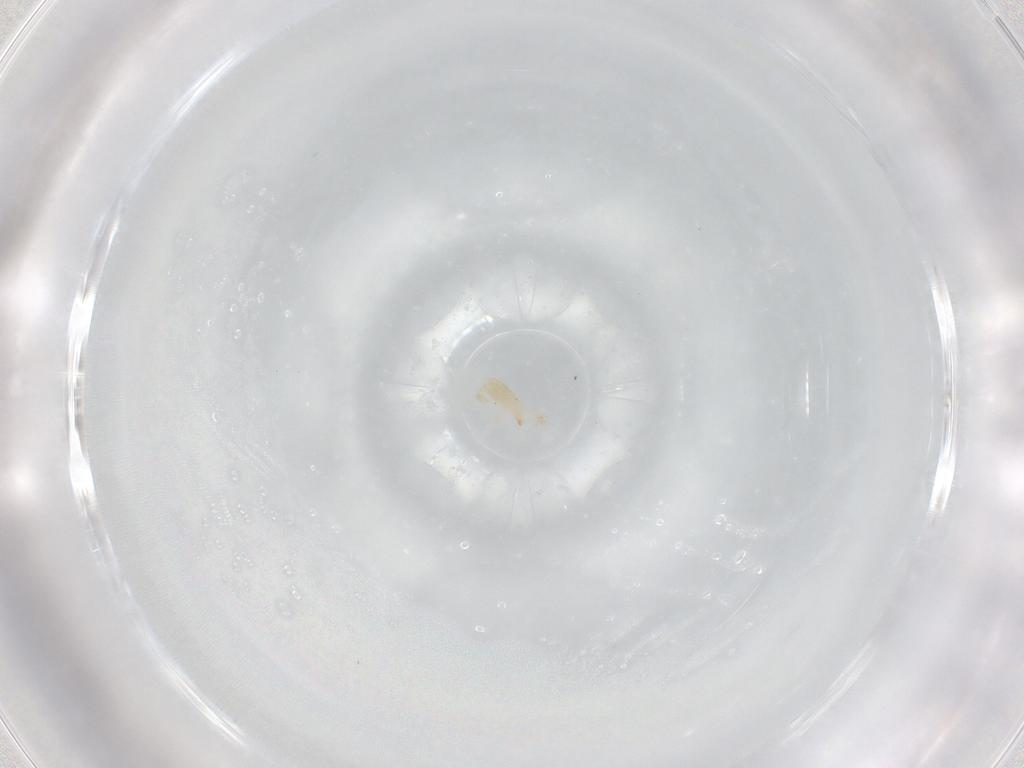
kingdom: Animalia
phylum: Arthropoda
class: Arachnida
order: Mesostigmata
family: Laelapidae
